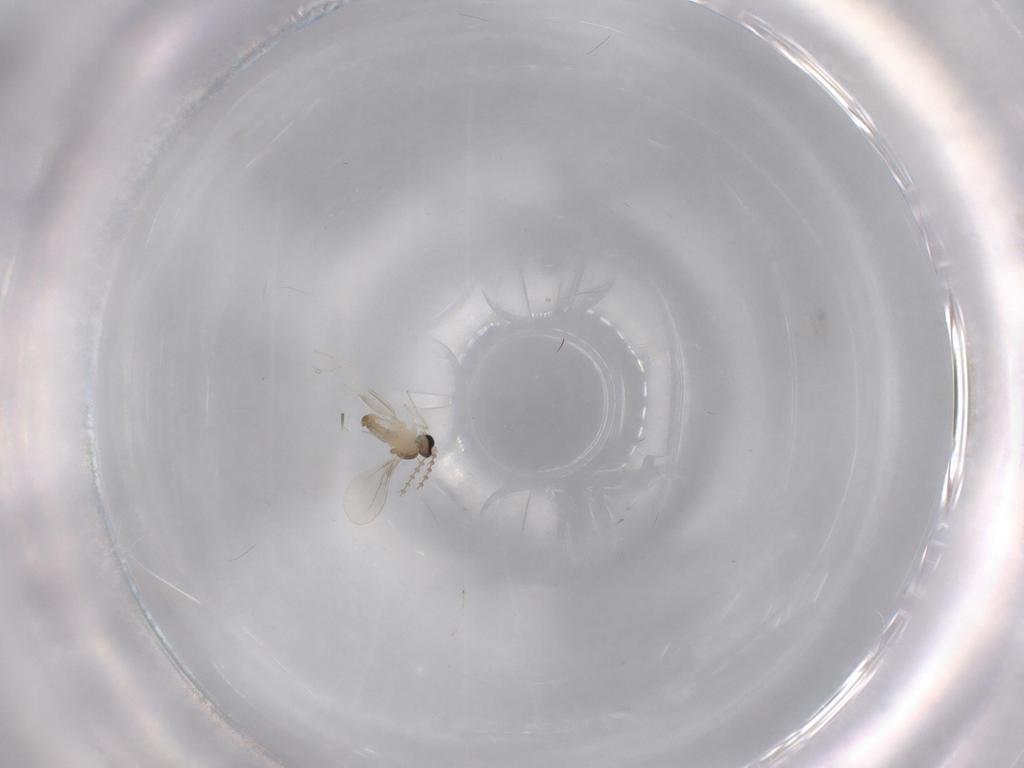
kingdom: Animalia
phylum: Arthropoda
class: Insecta
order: Diptera
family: Cecidomyiidae
